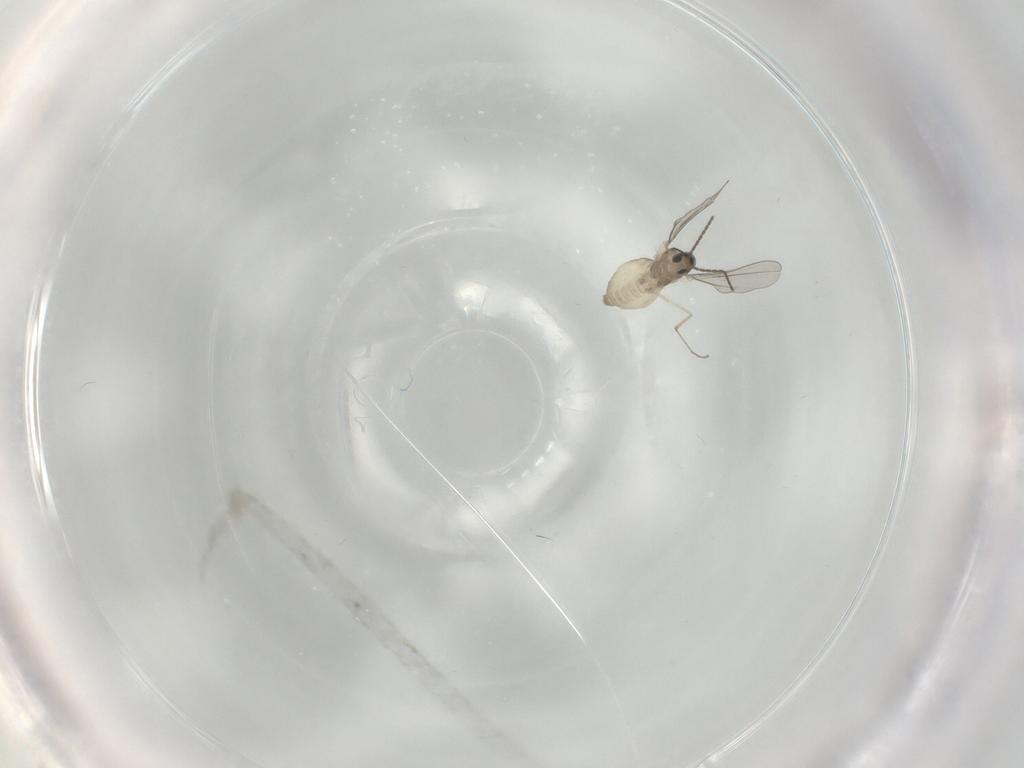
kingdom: Animalia
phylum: Arthropoda
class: Insecta
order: Diptera
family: Cecidomyiidae
